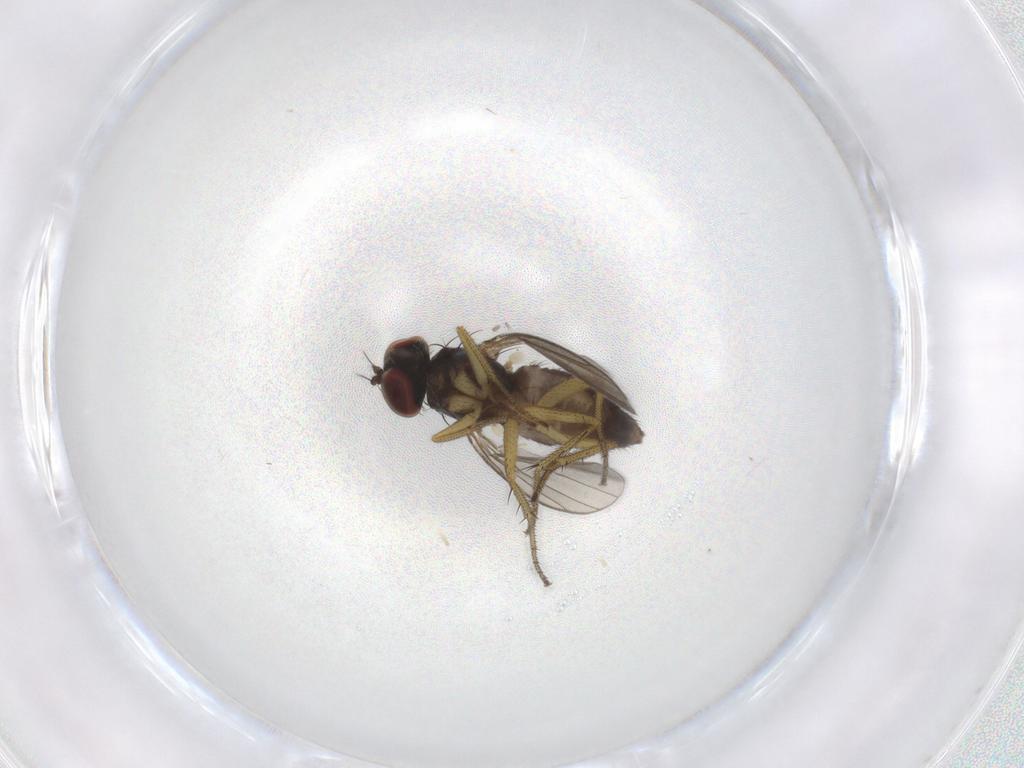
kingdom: Animalia
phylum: Arthropoda
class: Insecta
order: Diptera
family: Dolichopodidae
